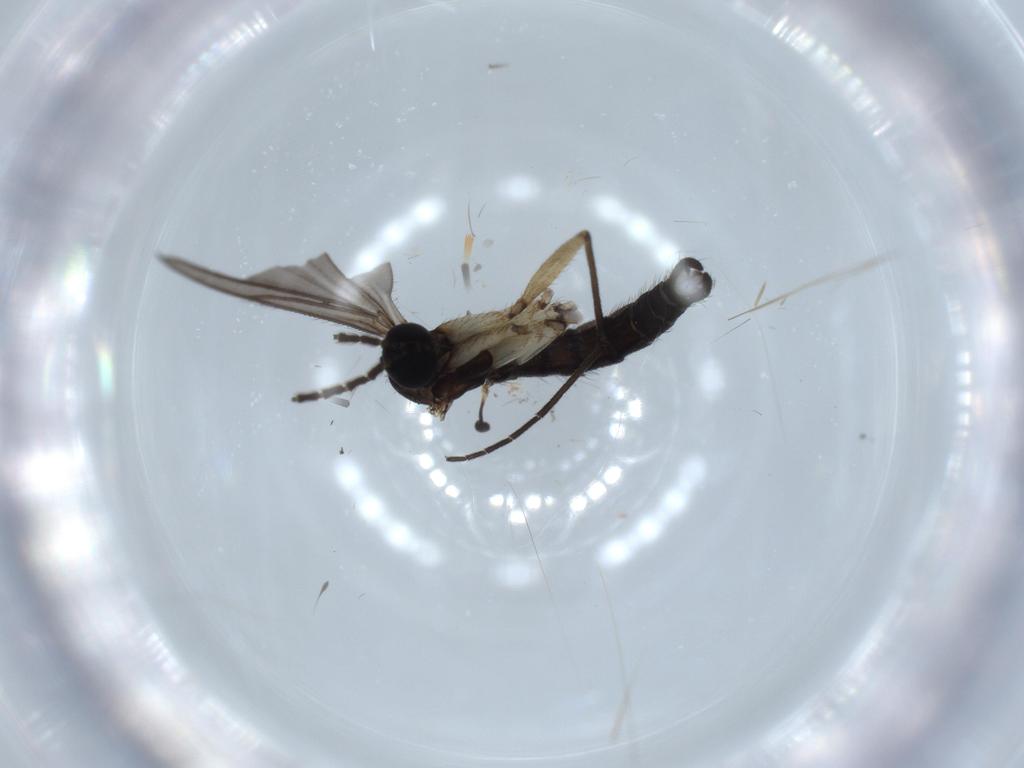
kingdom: Animalia
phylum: Arthropoda
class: Insecta
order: Diptera
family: Sciaridae
